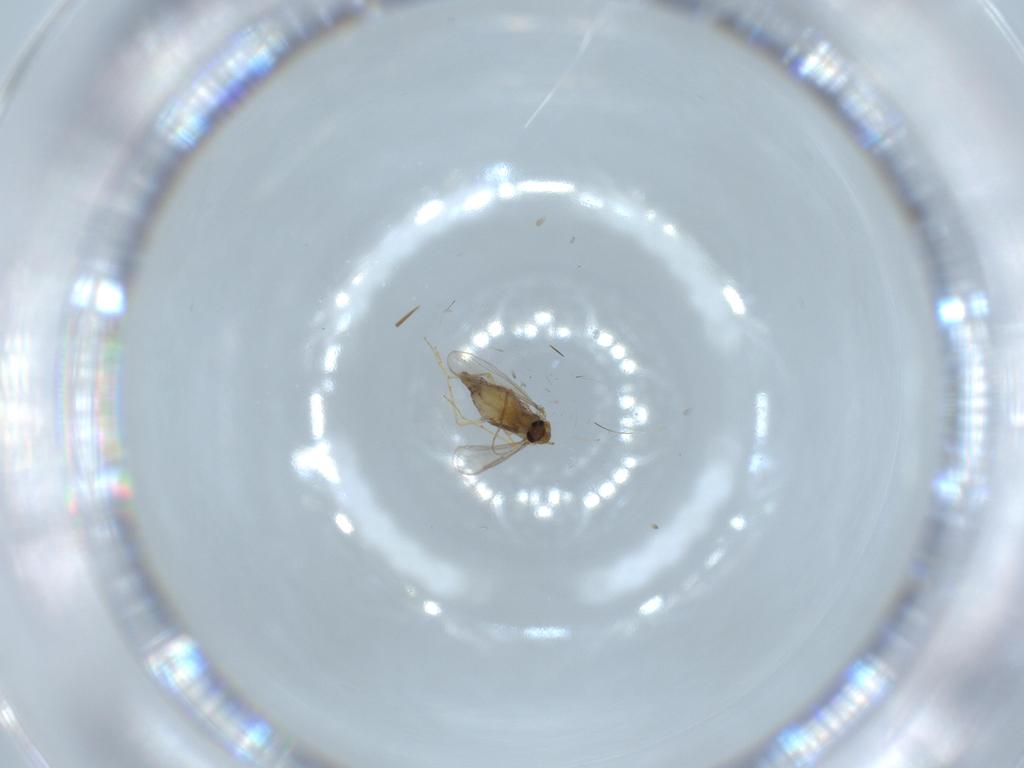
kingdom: Animalia
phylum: Arthropoda
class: Insecta
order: Diptera
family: Chironomidae
